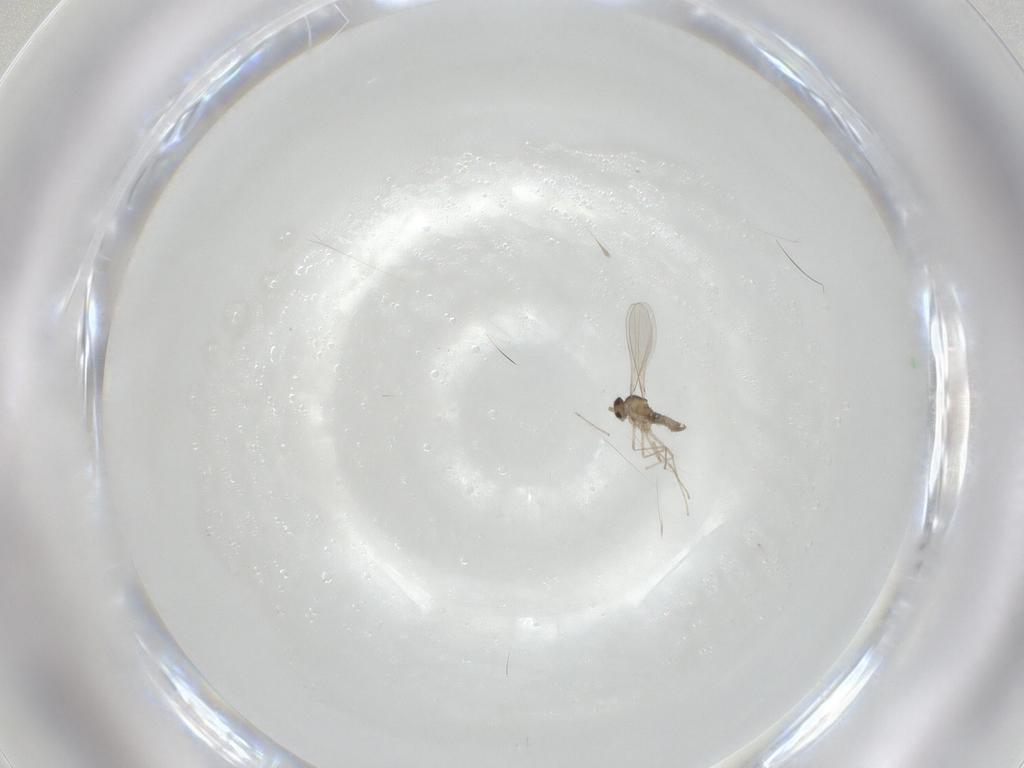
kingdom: Animalia
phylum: Arthropoda
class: Insecta
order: Diptera
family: Cecidomyiidae
